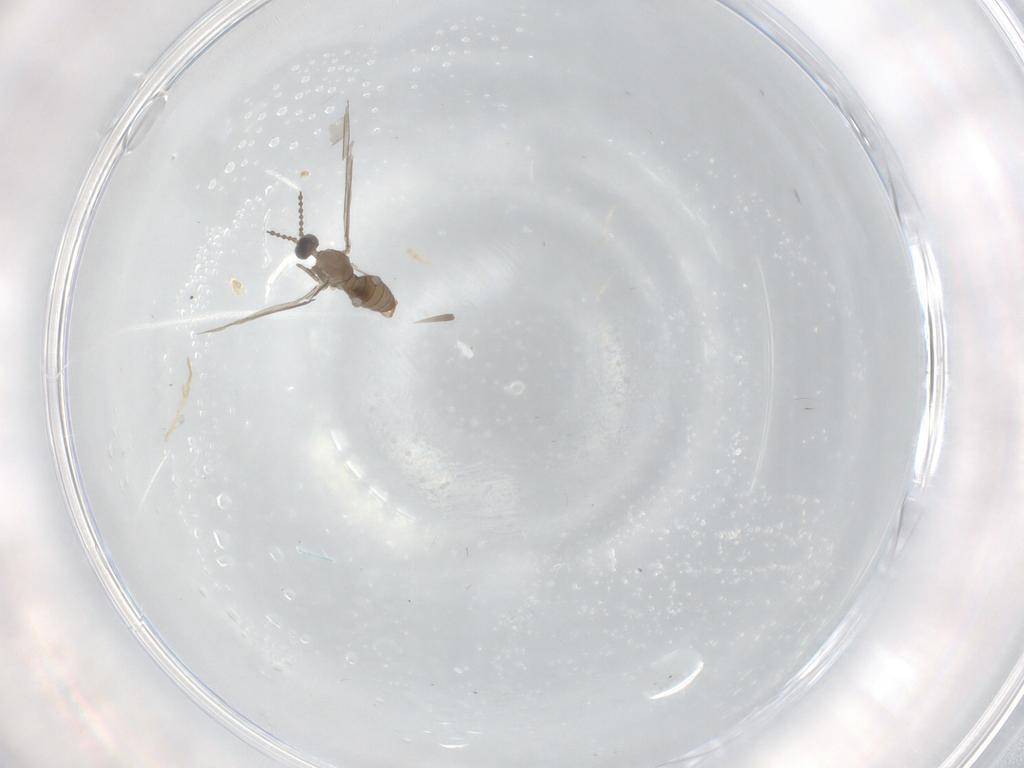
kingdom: Animalia
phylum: Arthropoda
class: Insecta
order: Diptera
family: Cecidomyiidae
